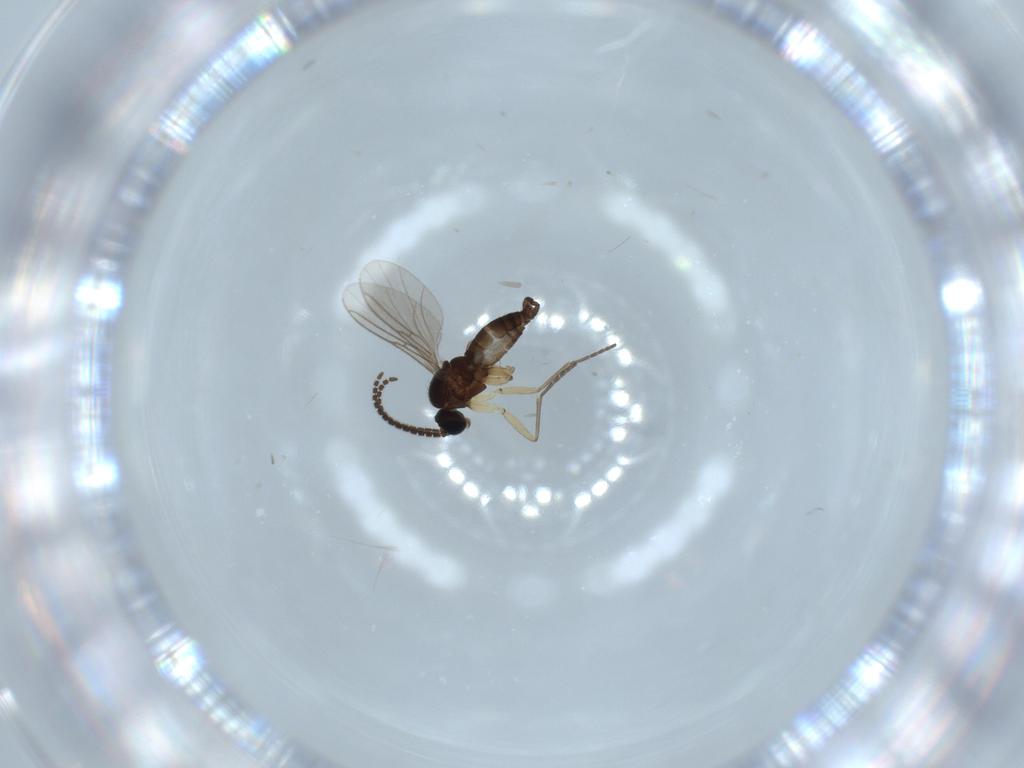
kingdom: Animalia
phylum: Arthropoda
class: Insecta
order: Diptera
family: Sciaridae
